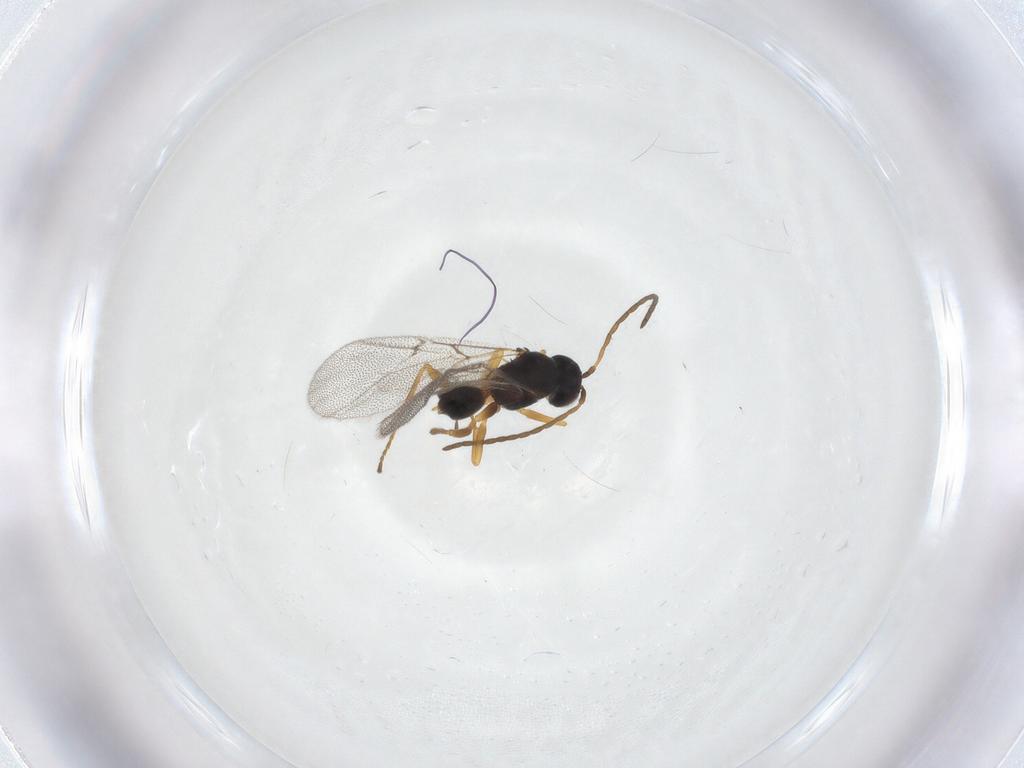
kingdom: Animalia
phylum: Arthropoda
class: Insecta
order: Hymenoptera
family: Cynipidae
